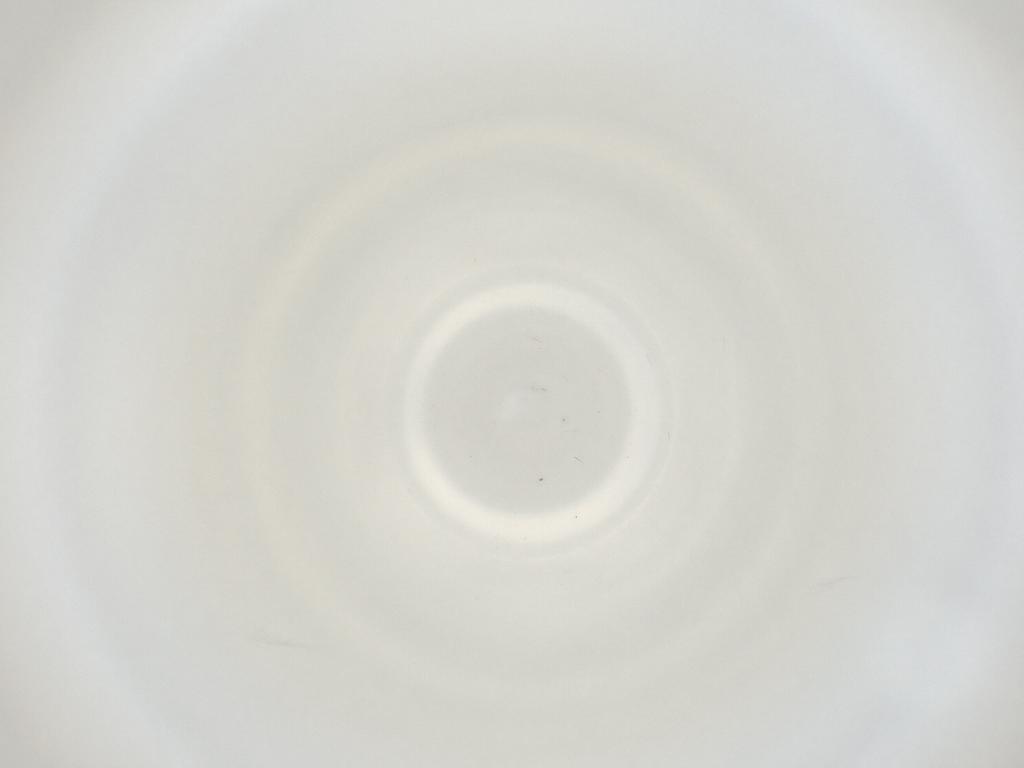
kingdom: Animalia
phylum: Arthropoda
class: Insecta
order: Diptera
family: Cecidomyiidae
